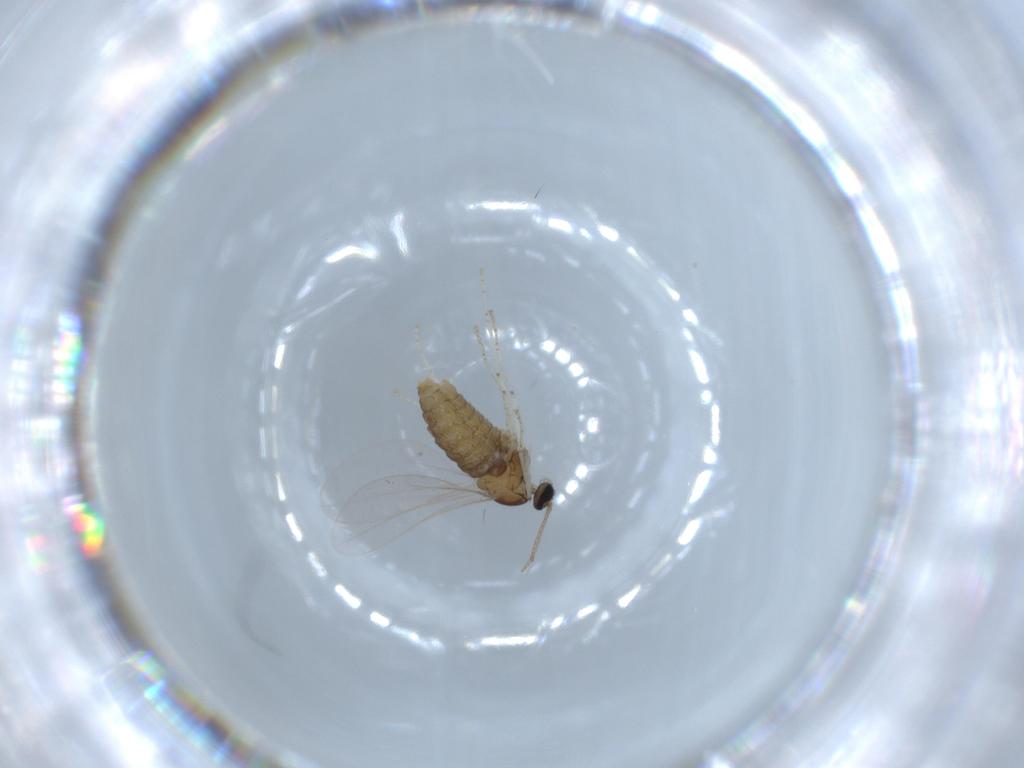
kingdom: Animalia
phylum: Arthropoda
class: Insecta
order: Diptera
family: Cecidomyiidae
